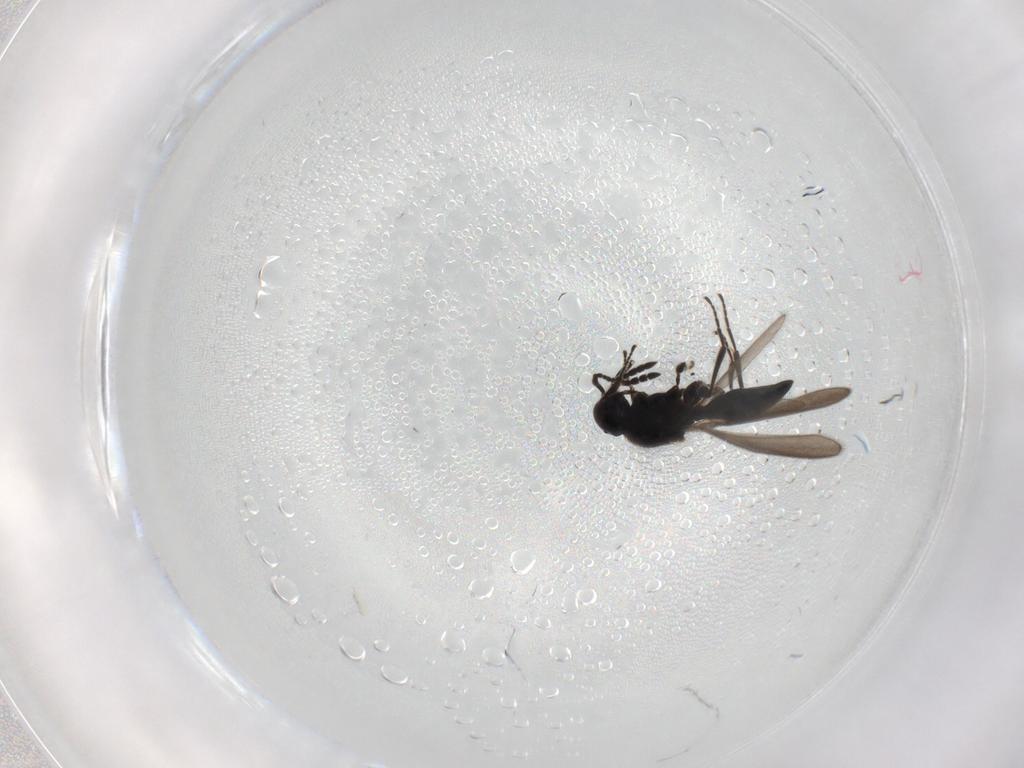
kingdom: Animalia
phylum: Arthropoda
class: Insecta
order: Hymenoptera
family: Platygastridae
